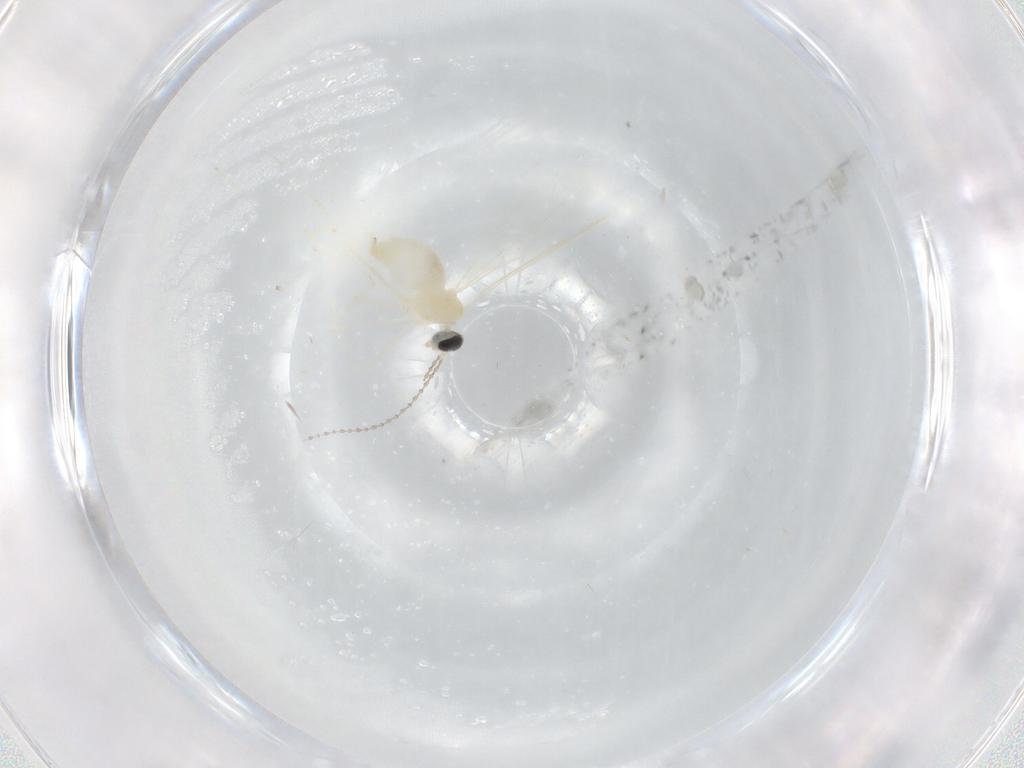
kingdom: Animalia
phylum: Arthropoda
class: Insecta
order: Diptera
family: Cecidomyiidae
